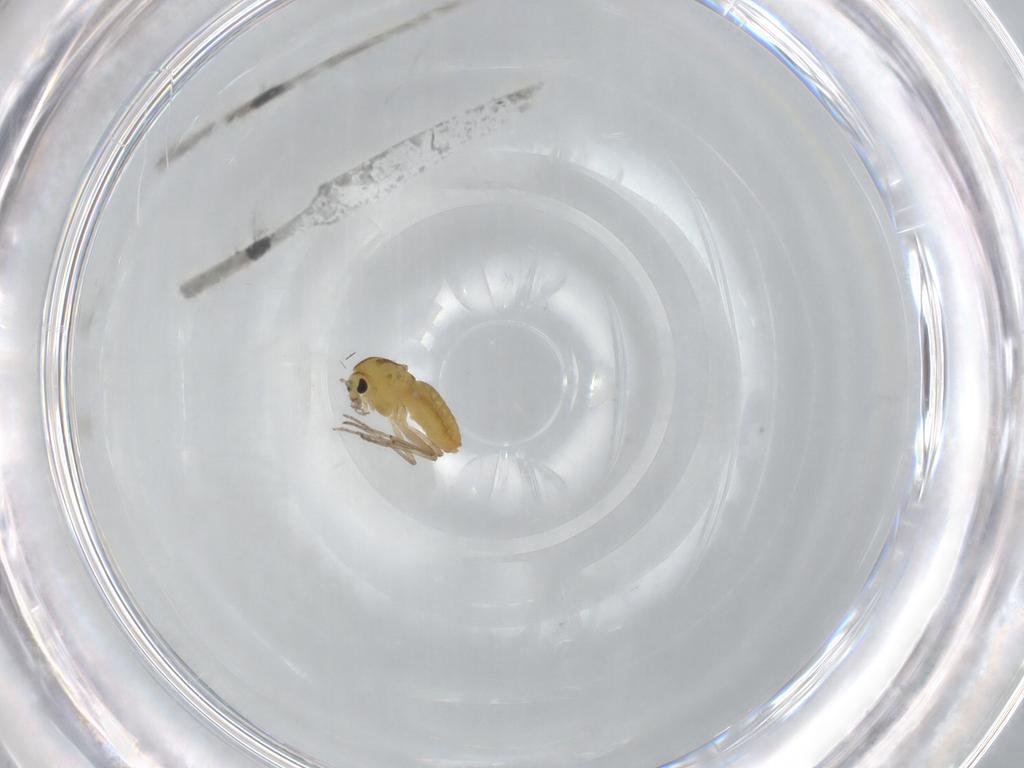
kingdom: Animalia
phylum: Arthropoda
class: Insecta
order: Diptera
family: Chironomidae
